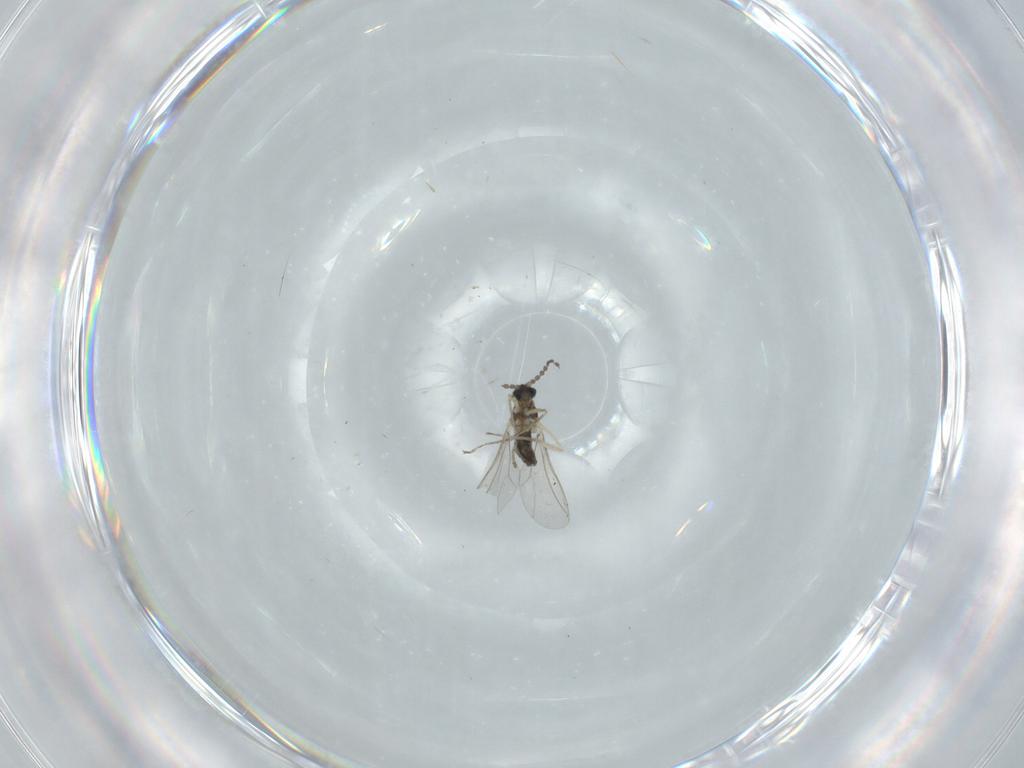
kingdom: Animalia
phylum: Arthropoda
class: Insecta
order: Diptera
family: Cecidomyiidae
